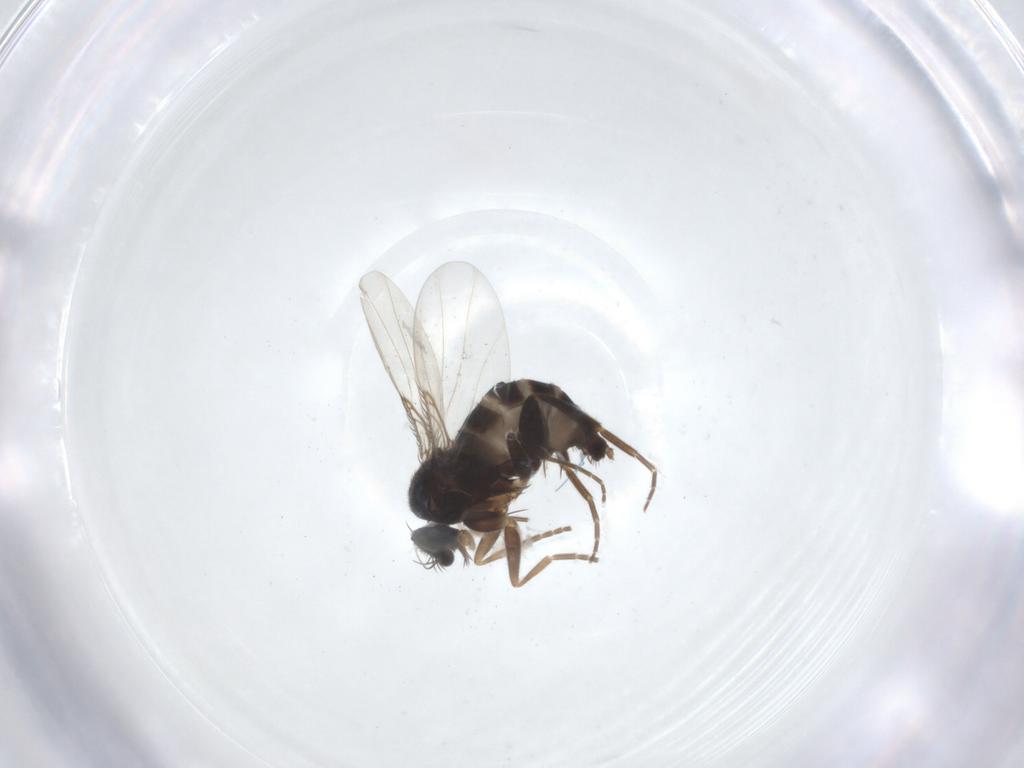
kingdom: Animalia
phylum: Arthropoda
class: Insecta
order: Diptera
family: Phoridae
